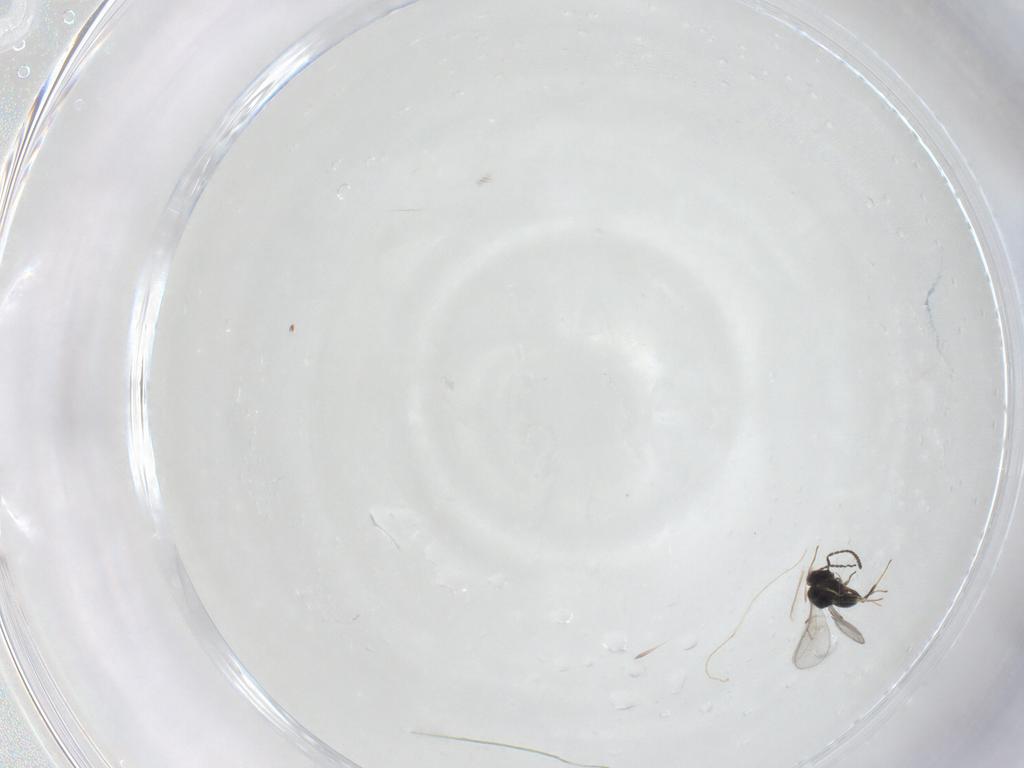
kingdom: Animalia
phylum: Arthropoda
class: Insecta
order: Hymenoptera
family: Scelionidae
